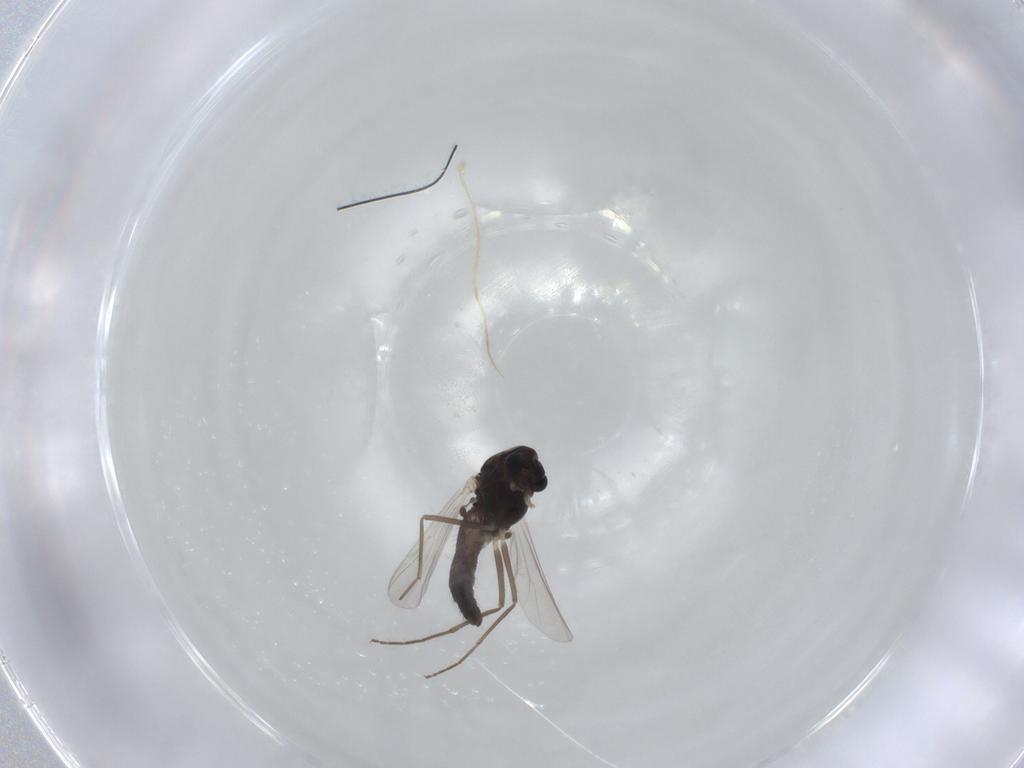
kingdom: Animalia
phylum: Arthropoda
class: Insecta
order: Diptera
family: Chironomidae
